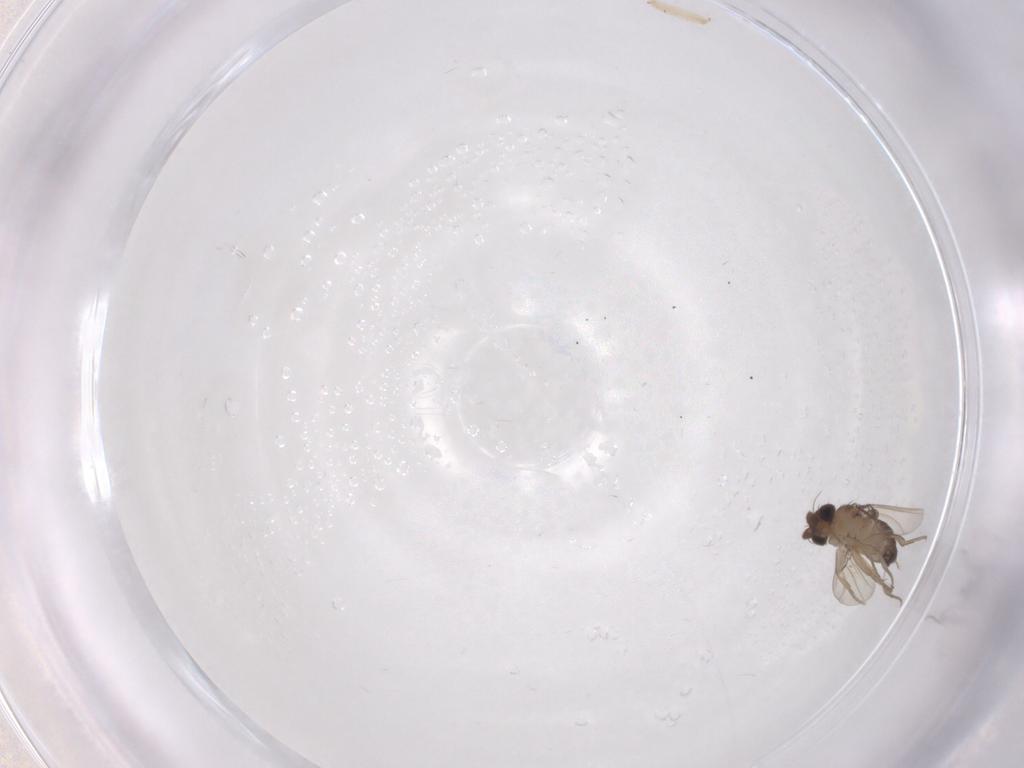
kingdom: Animalia
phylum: Arthropoda
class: Insecta
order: Diptera
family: Phoridae
